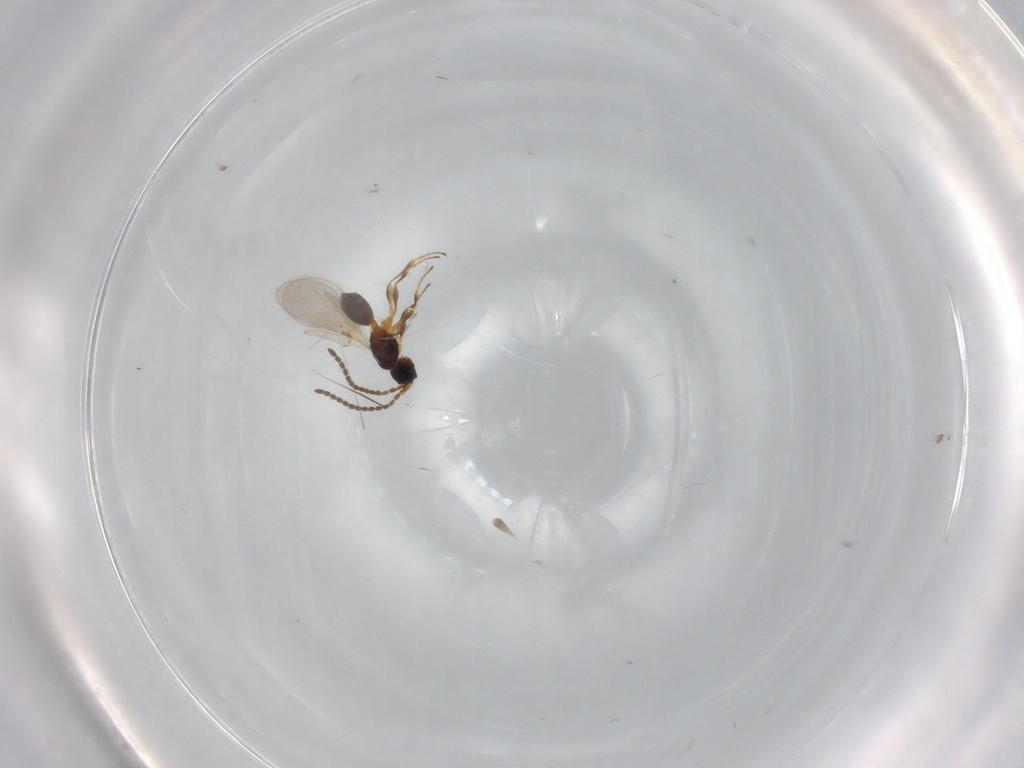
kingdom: Animalia
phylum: Arthropoda
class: Insecta
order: Hymenoptera
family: Diapriidae
